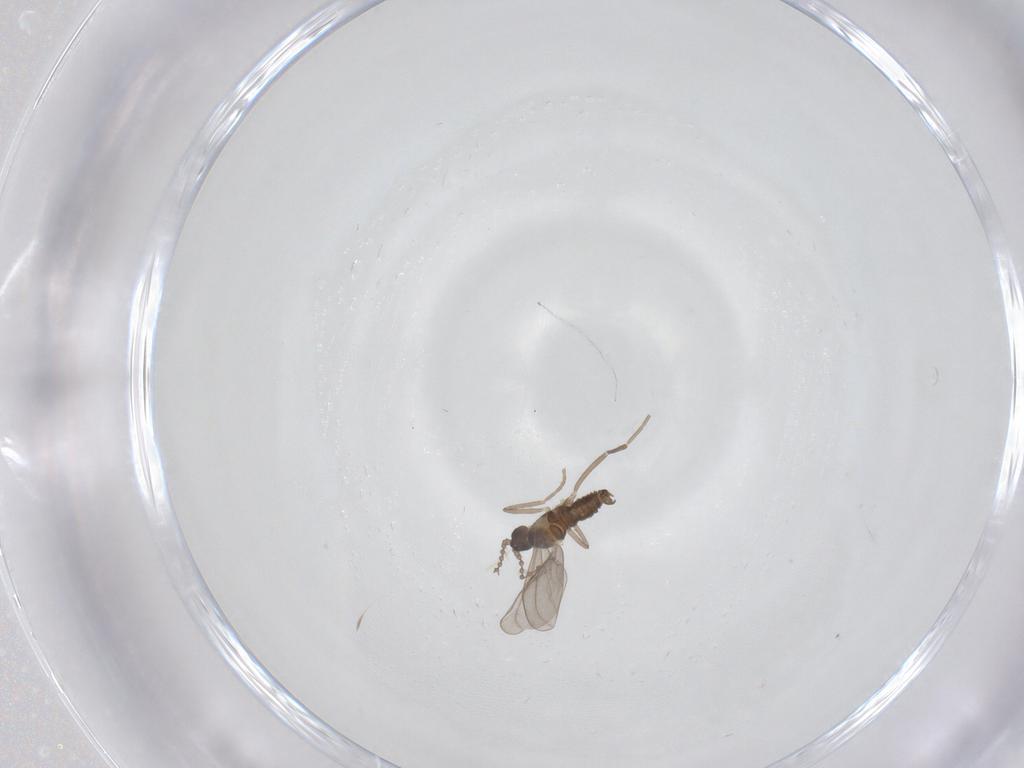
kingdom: Animalia
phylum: Arthropoda
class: Insecta
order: Diptera
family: Cecidomyiidae
